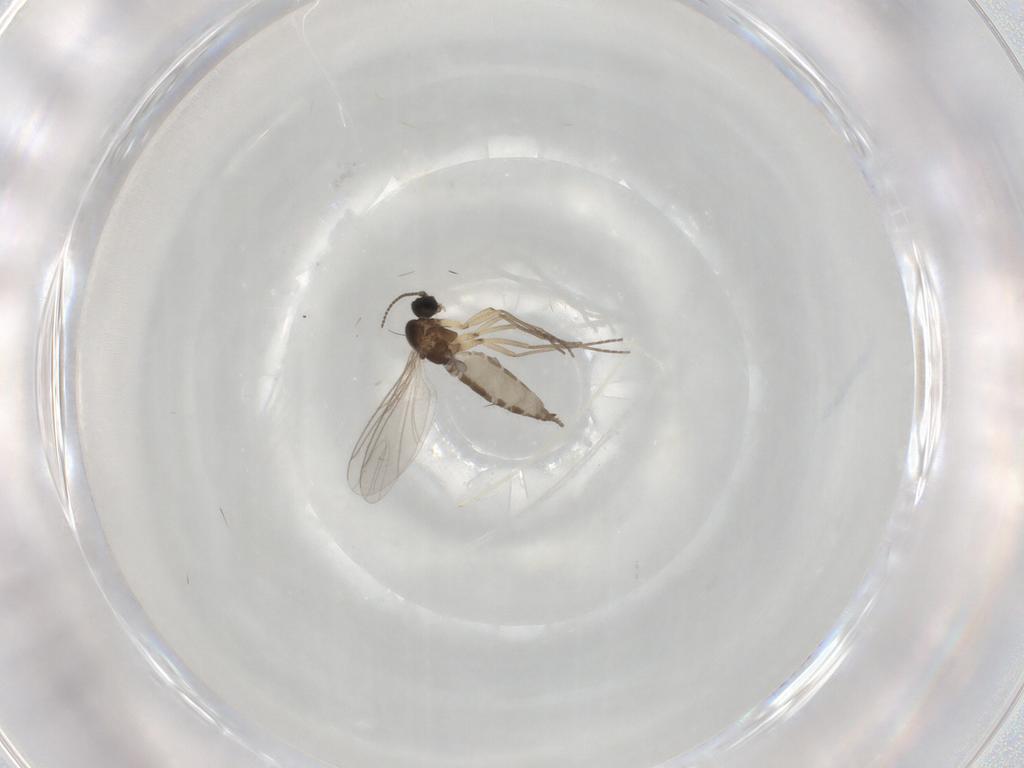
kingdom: Animalia
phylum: Arthropoda
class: Insecta
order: Diptera
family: Sciaridae
